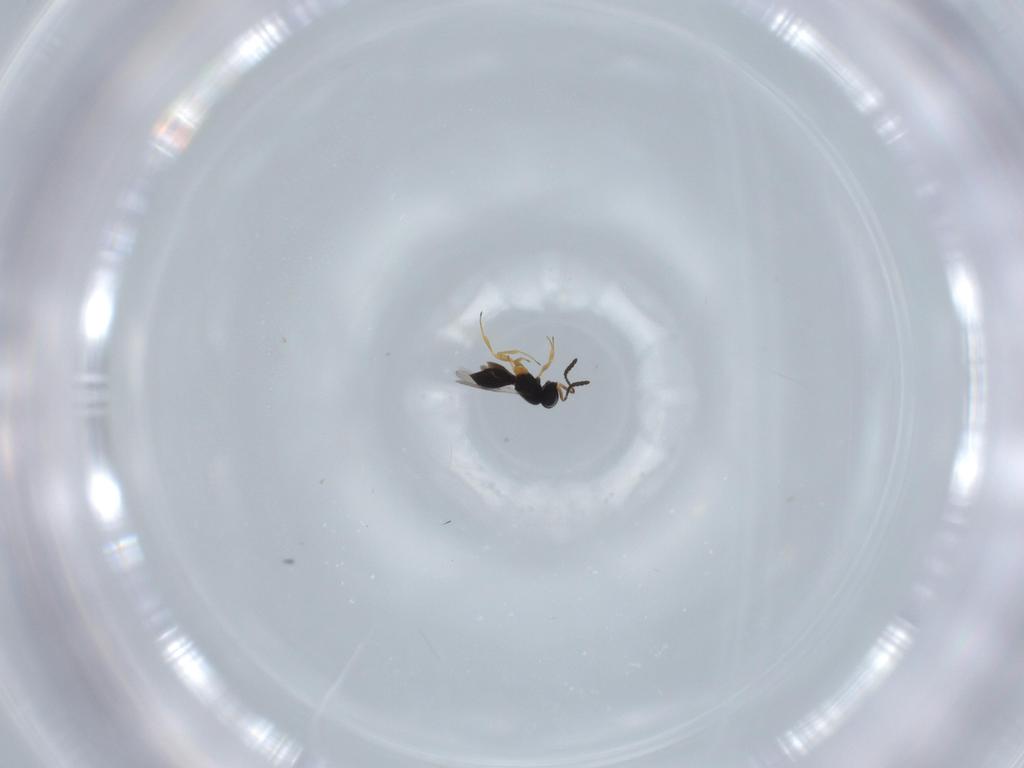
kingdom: Animalia
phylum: Arthropoda
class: Insecta
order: Hymenoptera
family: Scelionidae
